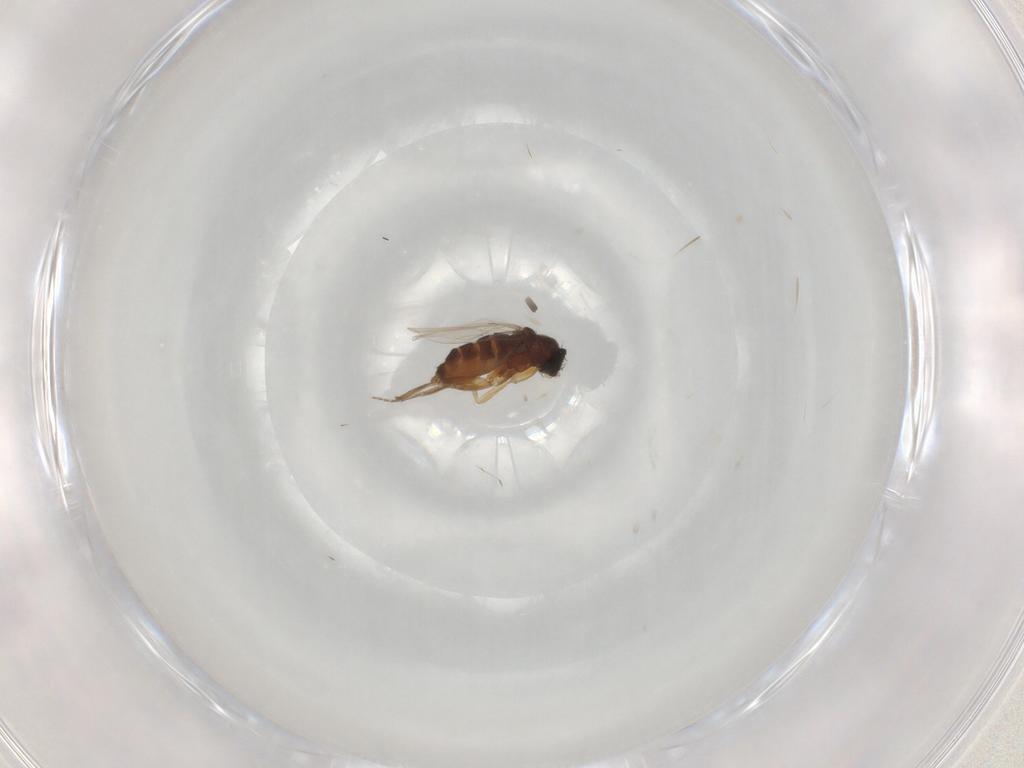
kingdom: Animalia
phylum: Arthropoda
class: Insecta
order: Diptera
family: Phoridae
